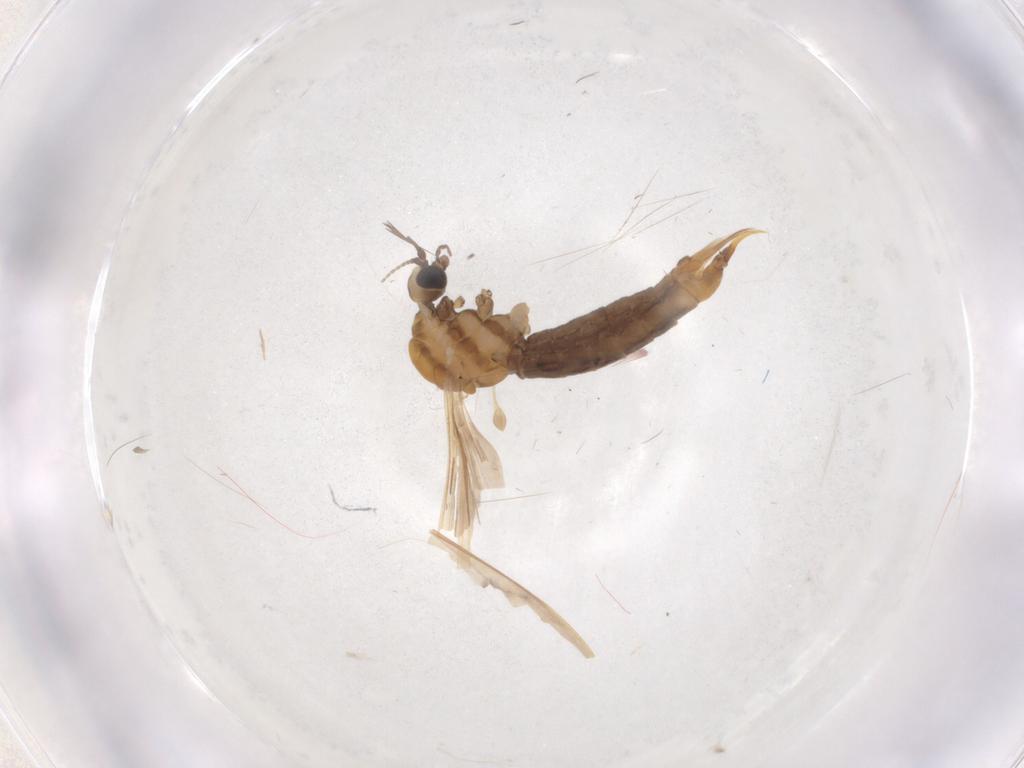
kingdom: Animalia
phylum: Arthropoda
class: Insecta
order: Diptera
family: Limoniidae
